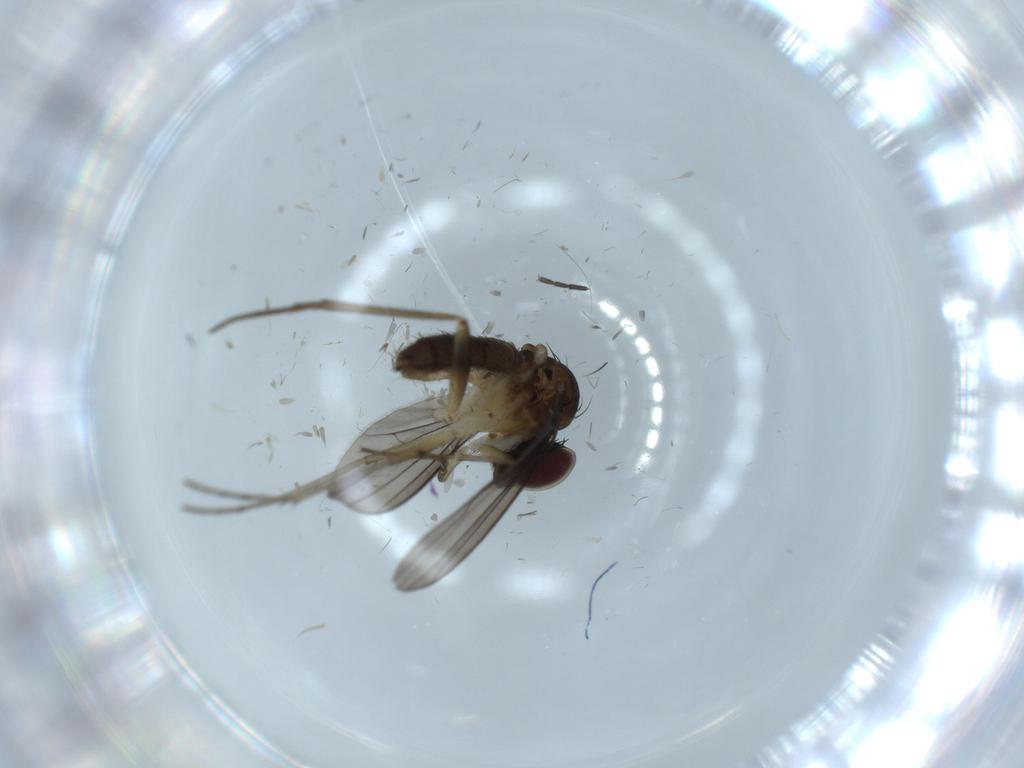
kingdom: Animalia
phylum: Arthropoda
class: Insecta
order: Diptera
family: Dolichopodidae
